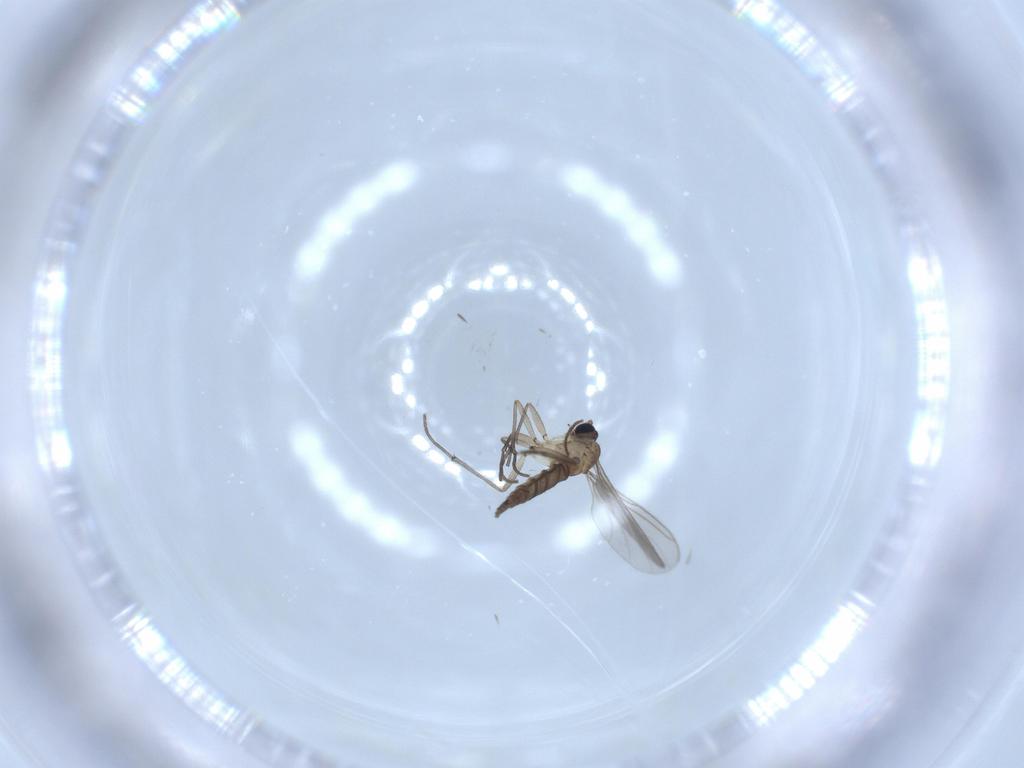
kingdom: Animalia
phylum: Arthropoda
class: Insecta
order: Diptera
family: Sciaridae
